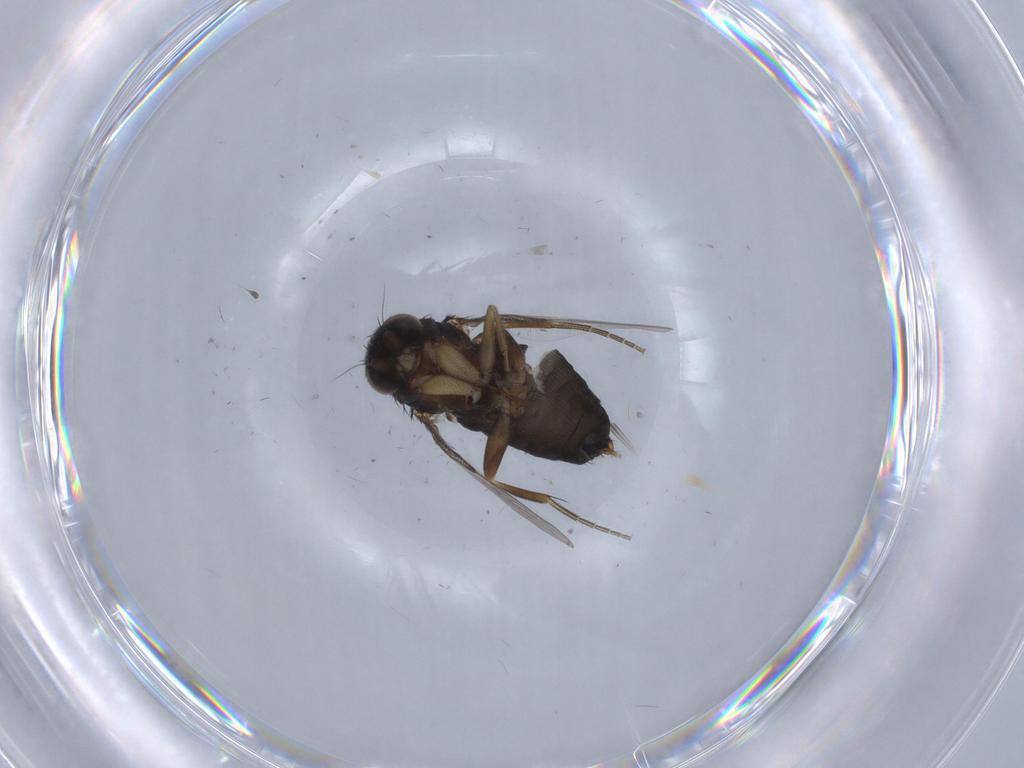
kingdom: Animalia
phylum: Arthropoda
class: Insecta
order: Diptera
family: Phoridae
